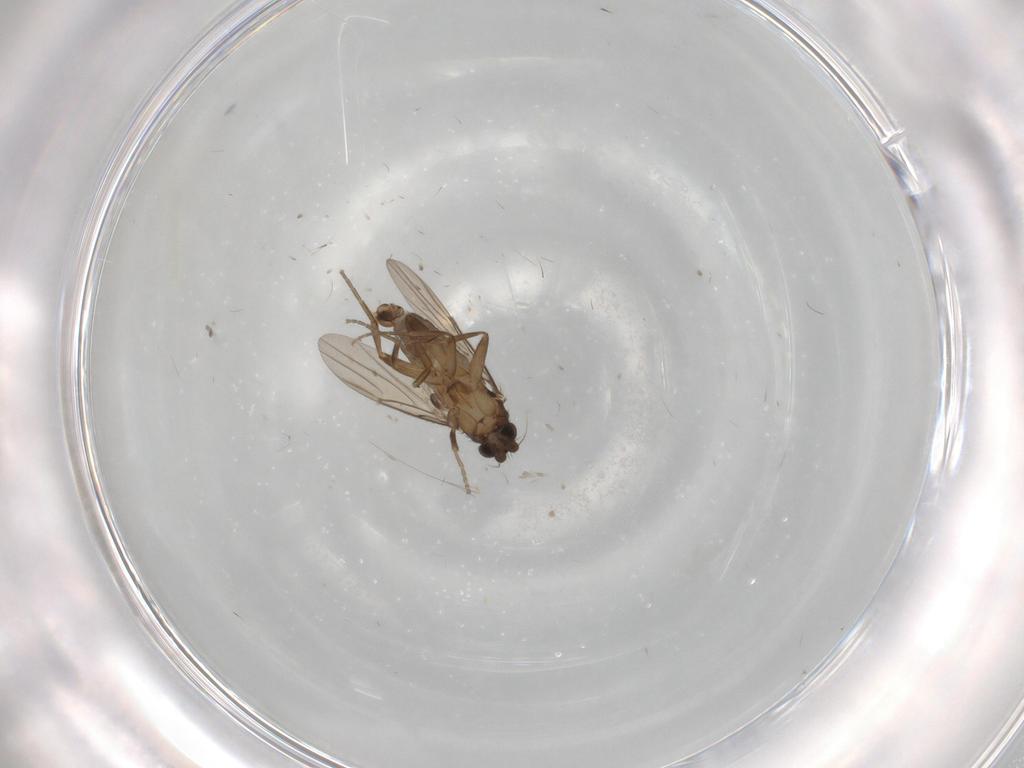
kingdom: Animalia
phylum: Arthropoda
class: Insecta
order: Diptera
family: Phoridae
